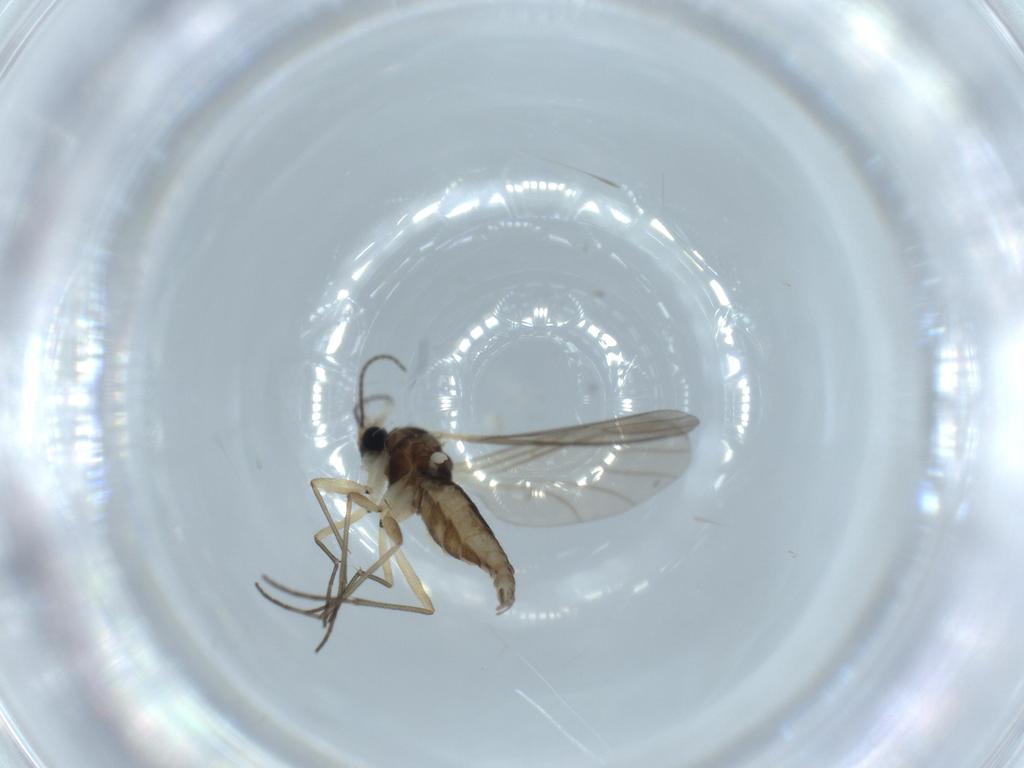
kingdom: Animalia
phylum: Arthropoda
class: Insecta
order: Diptera
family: Sciaridae
